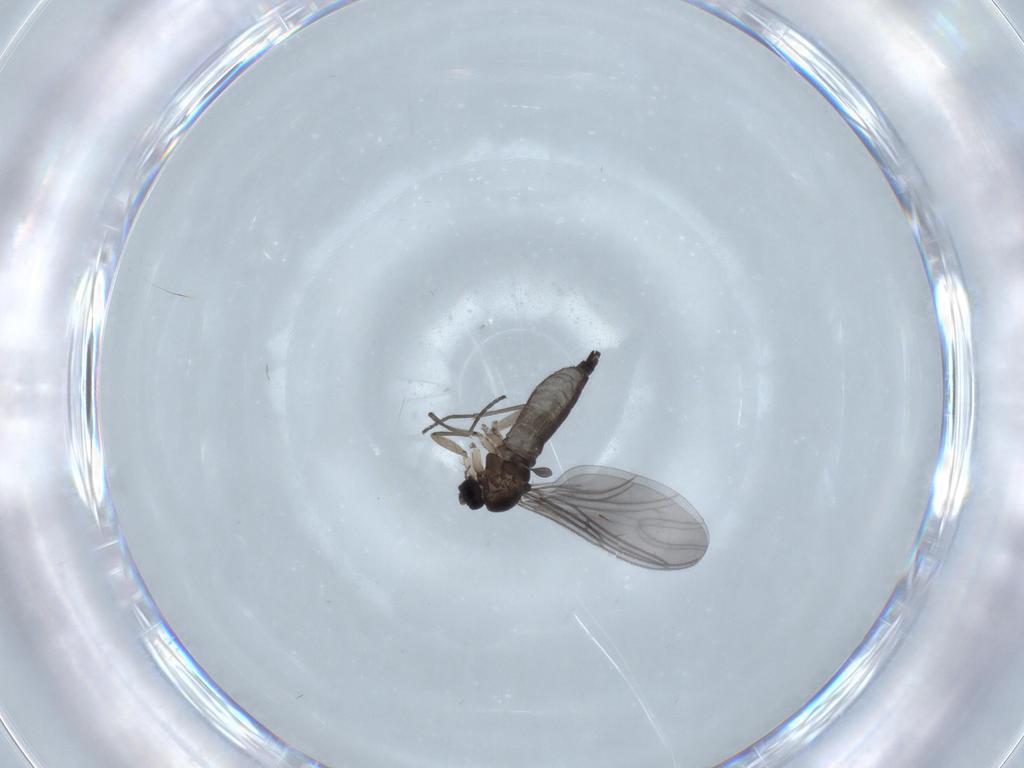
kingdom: Animalia
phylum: Arthropoda
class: Insecta
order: Diptera
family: Sciaridae
